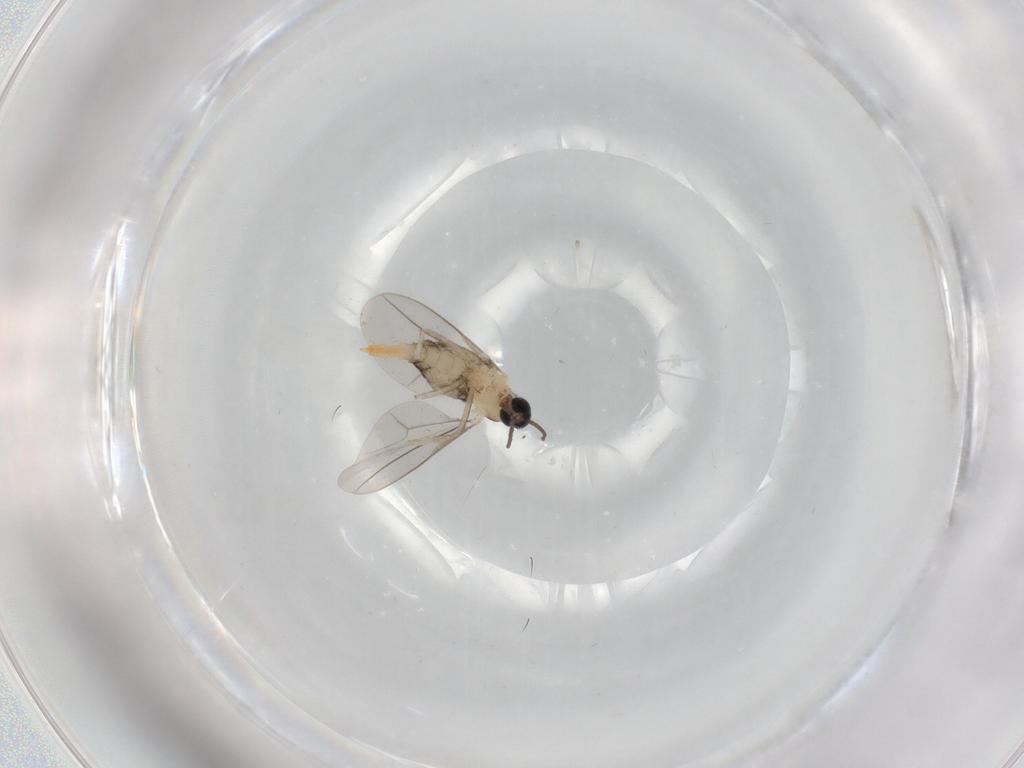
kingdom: Animalia
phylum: Arthropoda
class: Insecta
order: Diptera
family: Cecidomyiidae
